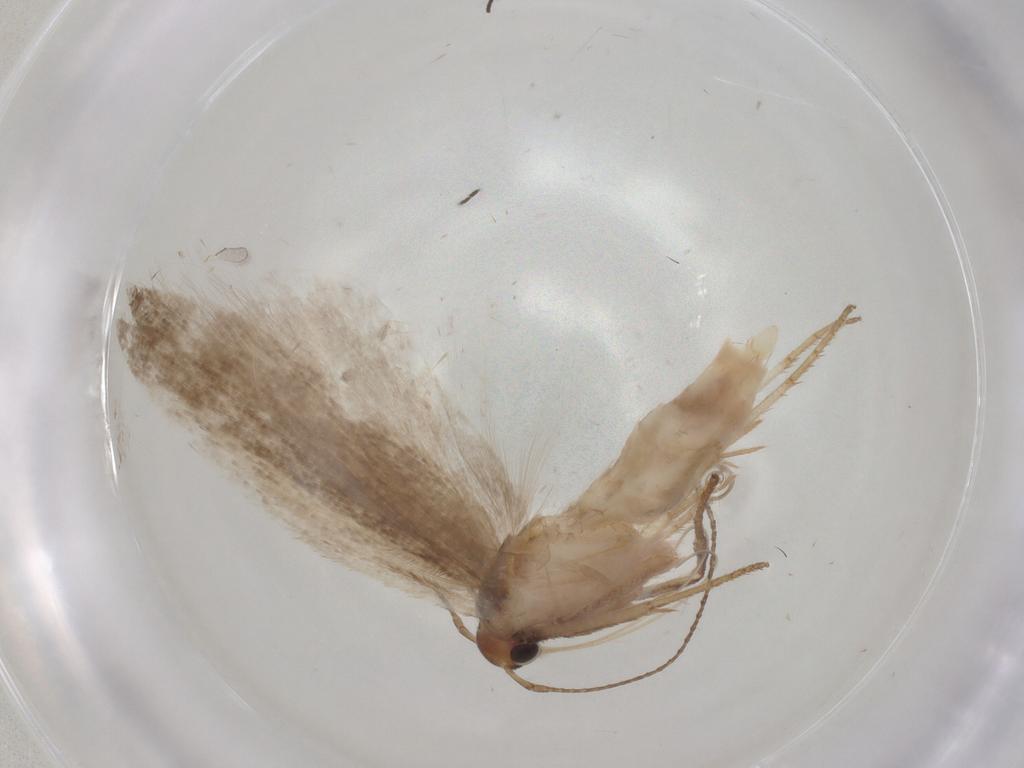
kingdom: Animalia
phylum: Arthropoda
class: Insecta
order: Lepidoptera
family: Gelechiidae
